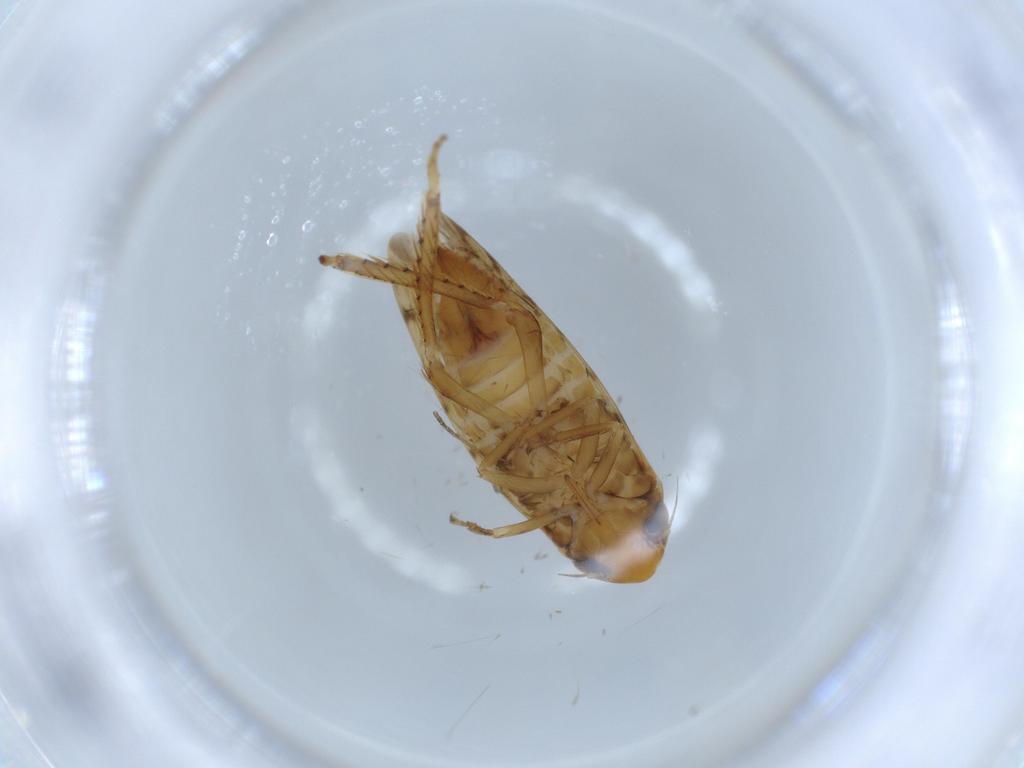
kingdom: Animalia
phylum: Arthropoda
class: Insecta
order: Hemiptera
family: Cicadellidae
